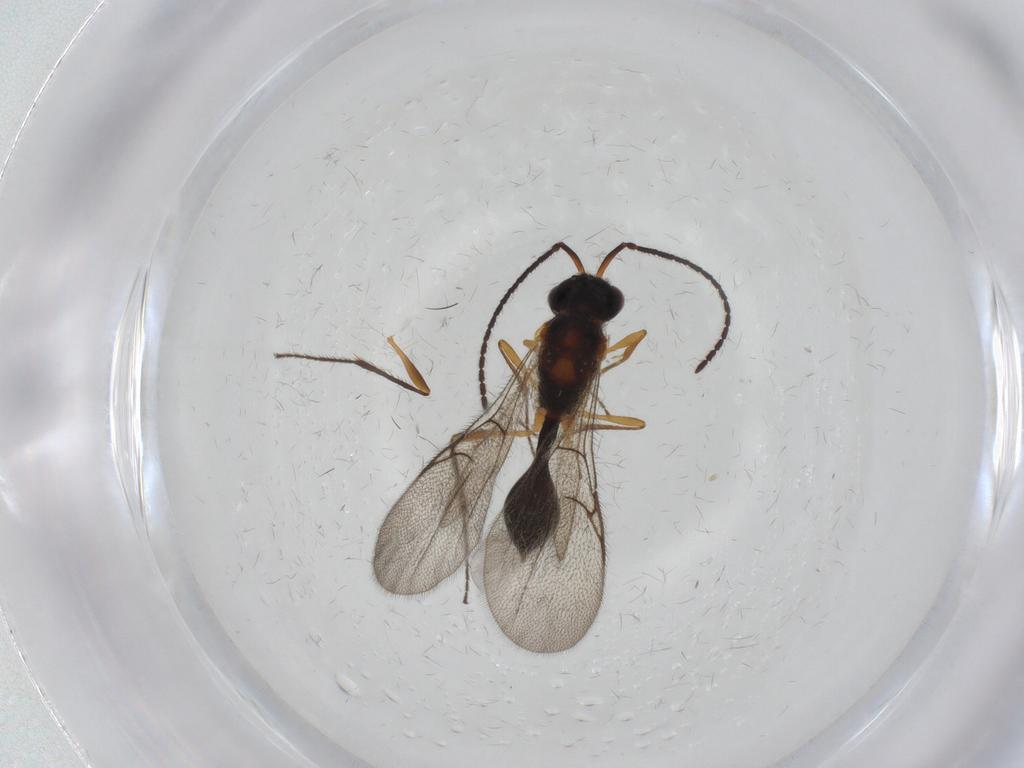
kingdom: Animalia
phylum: Arthropoda
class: Insecta
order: Hymenoptera
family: Diapriidae
